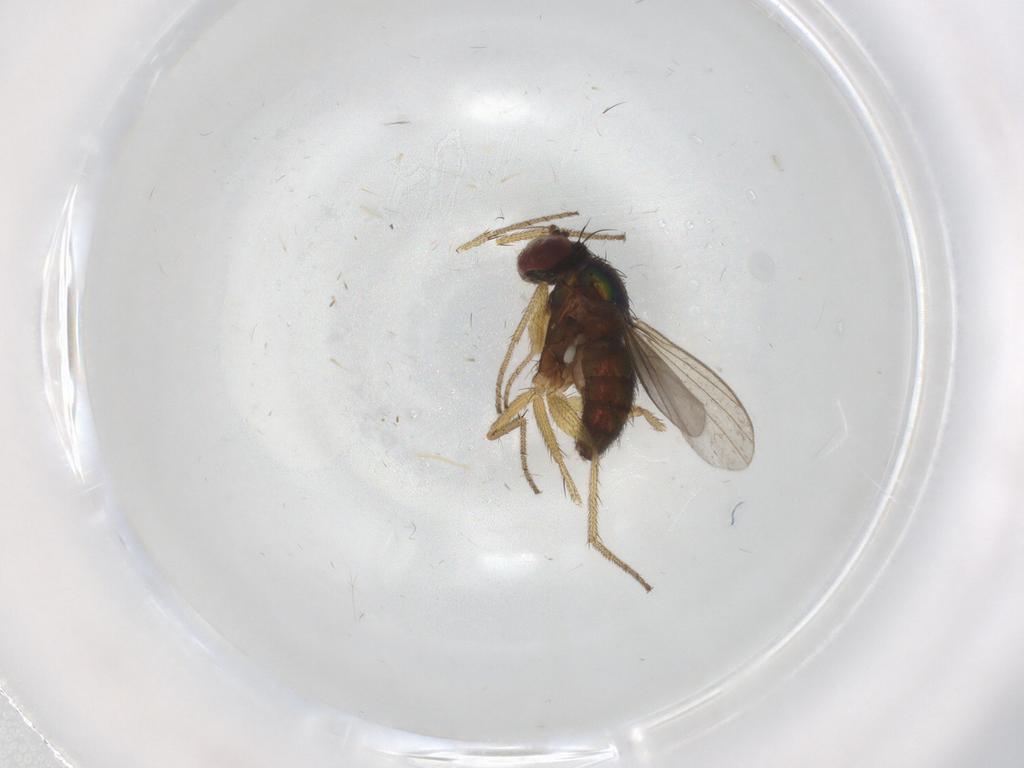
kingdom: Animalia
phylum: Arthropoda
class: Insecta
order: Diptera
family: Ceratopogonidae
